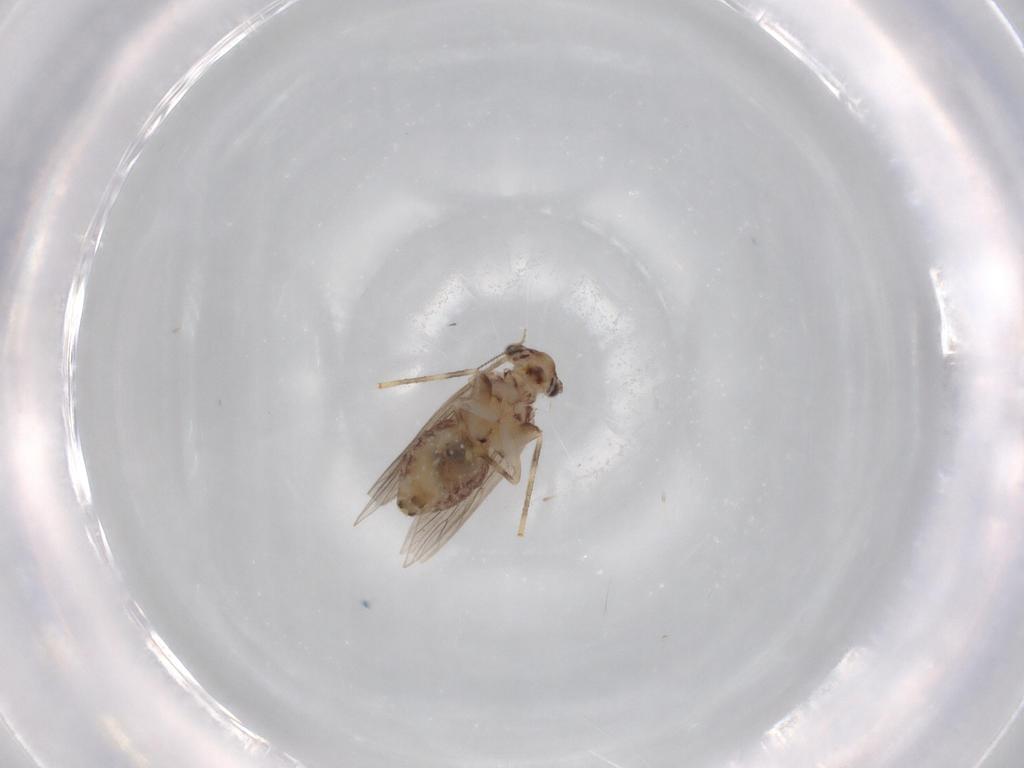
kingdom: Animalia
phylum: Arthropoda
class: Insecta
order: Psocodea
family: Lepidopsocidae
